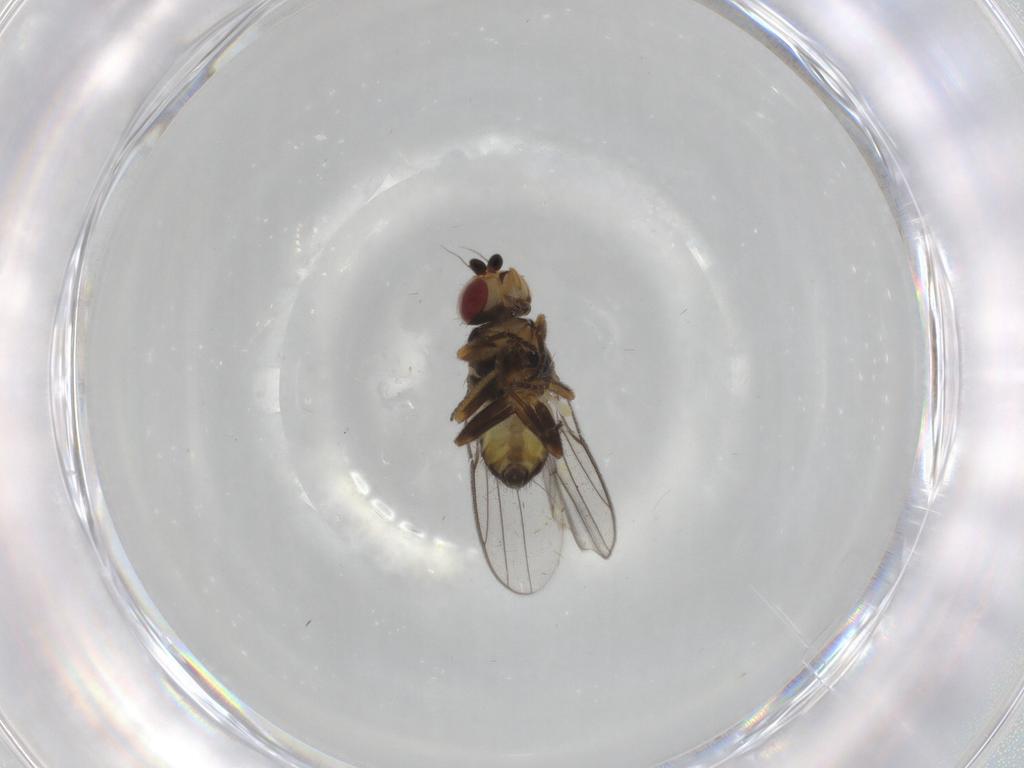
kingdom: Animalia
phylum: Arthropoda
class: Insecta
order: Diptera
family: Chloropidae
